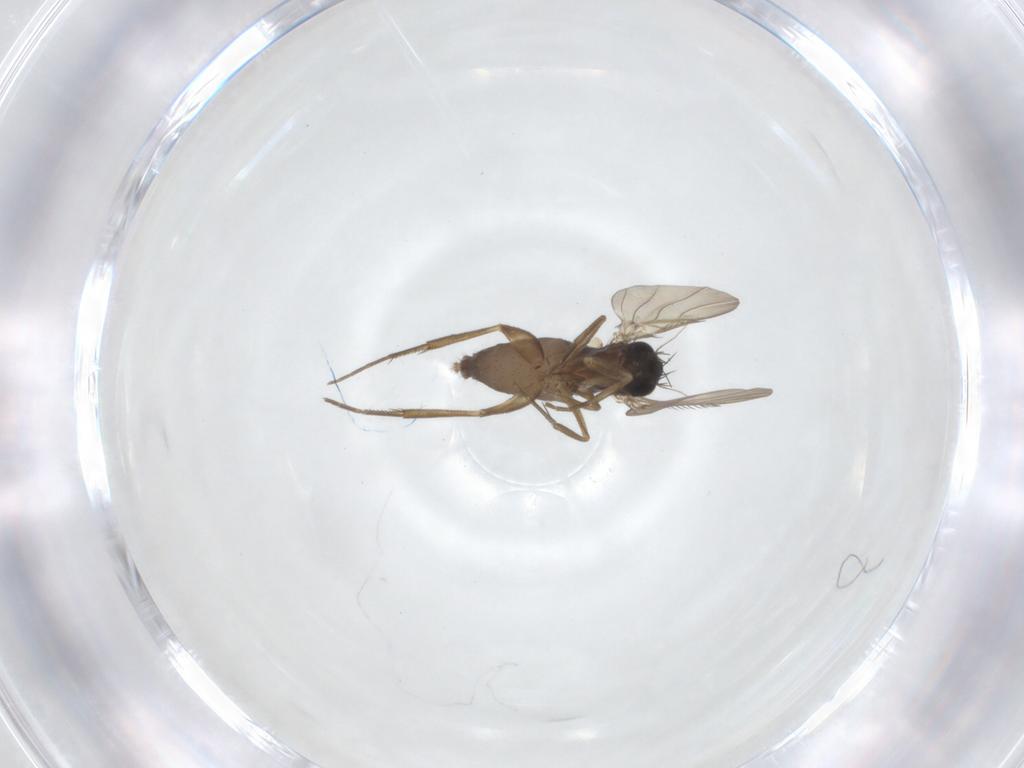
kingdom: Animalia
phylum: Arthropoda
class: Insecta
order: Diptera
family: Phoridae
